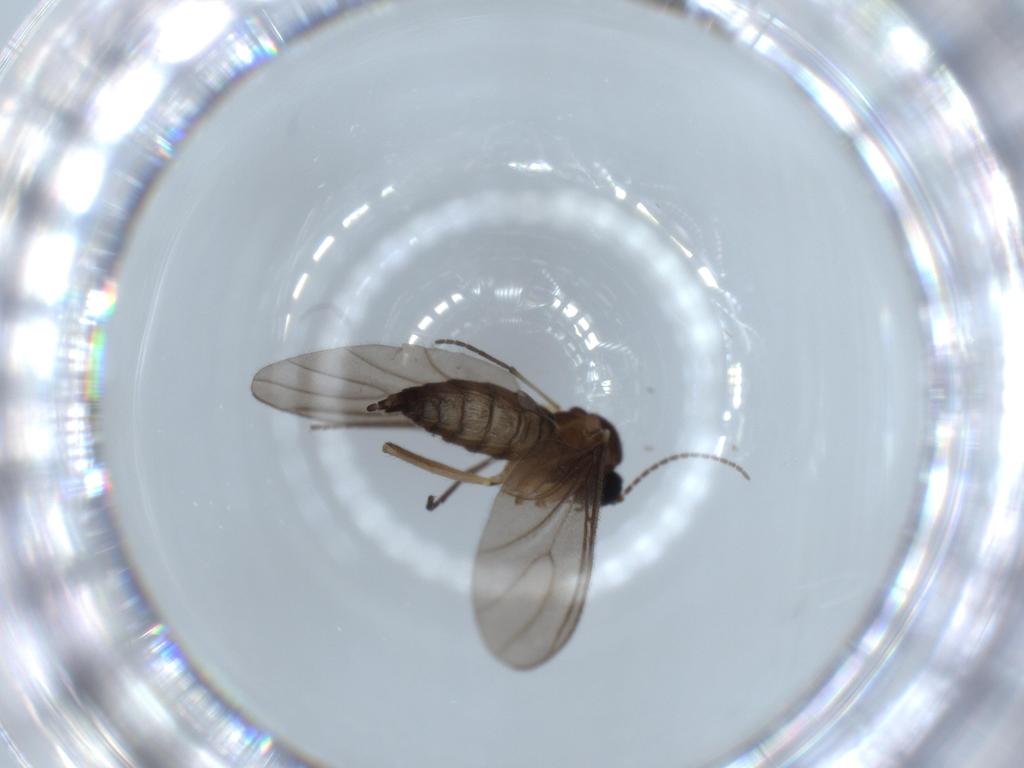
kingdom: Animalia
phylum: Arthropoda
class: Insecta
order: Diptera
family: Sciaridae
